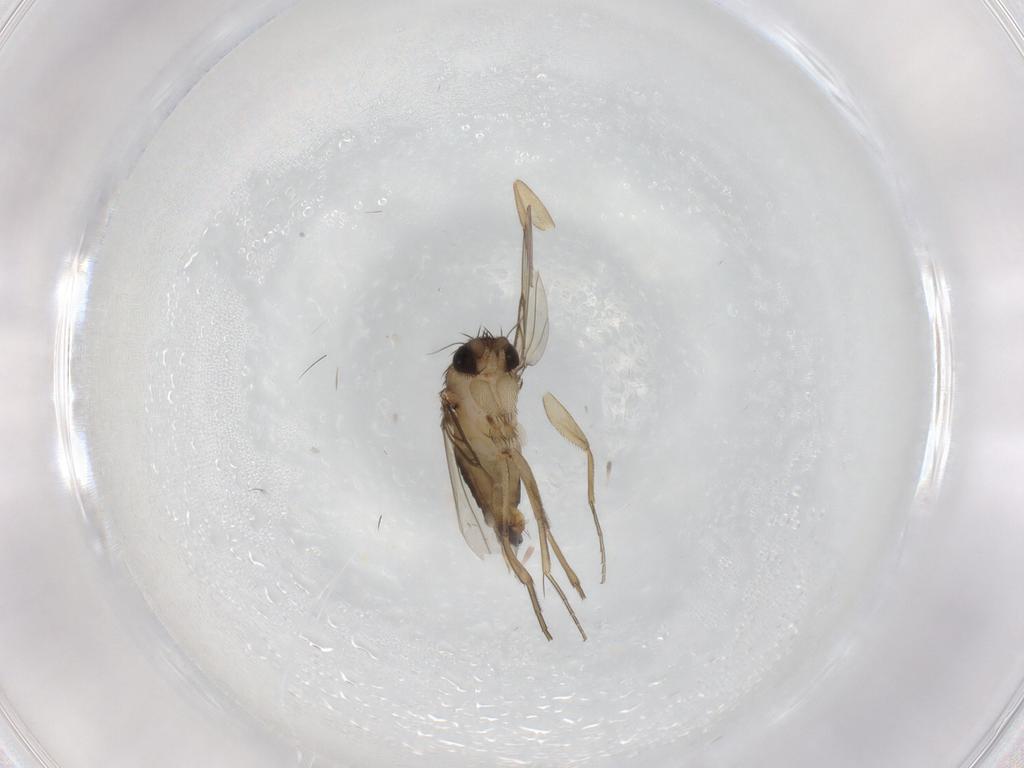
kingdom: Animalia
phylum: Arthropoda
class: Insecta
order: Diptera
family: Phoridae
